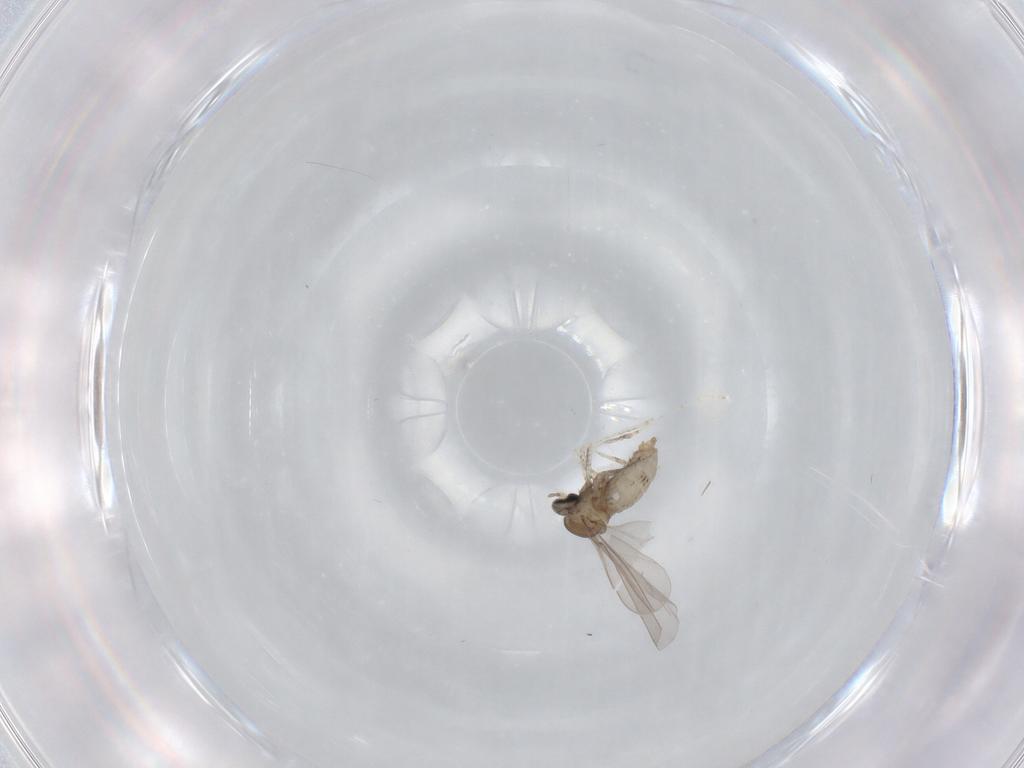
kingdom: Animalia
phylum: Arthropoda
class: Insecta
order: Diptera
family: Cecidomyiidae
